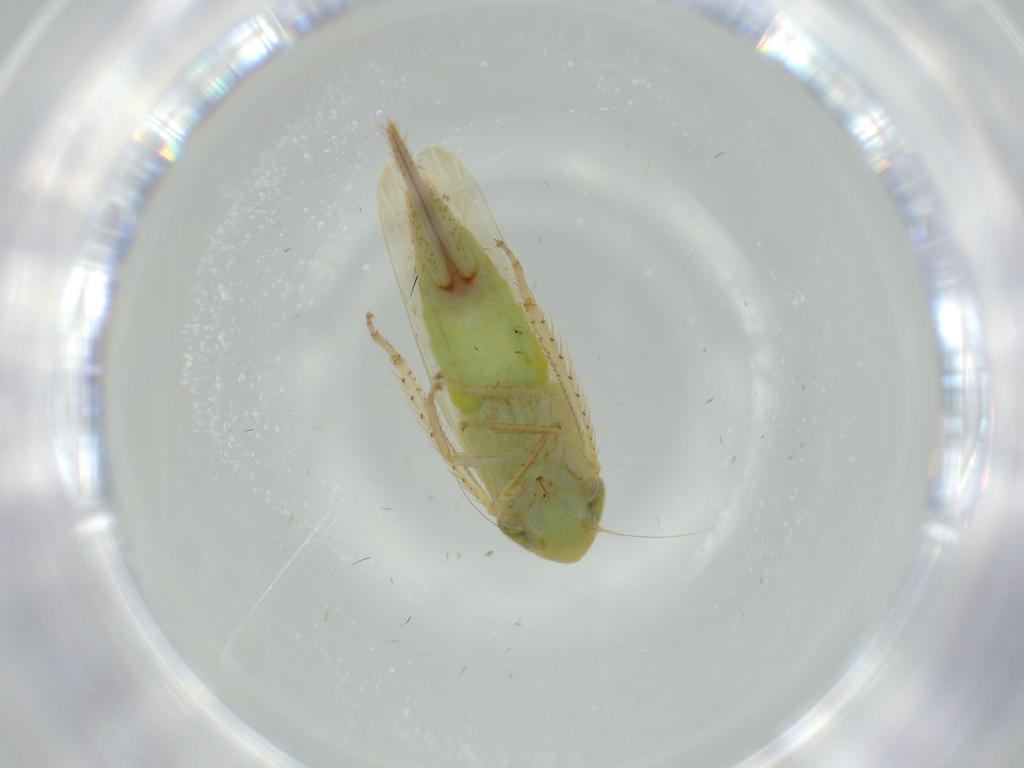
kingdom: Animalia
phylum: Arthropoda
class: Insecta
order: Hemiptera
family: Cicadellidae
